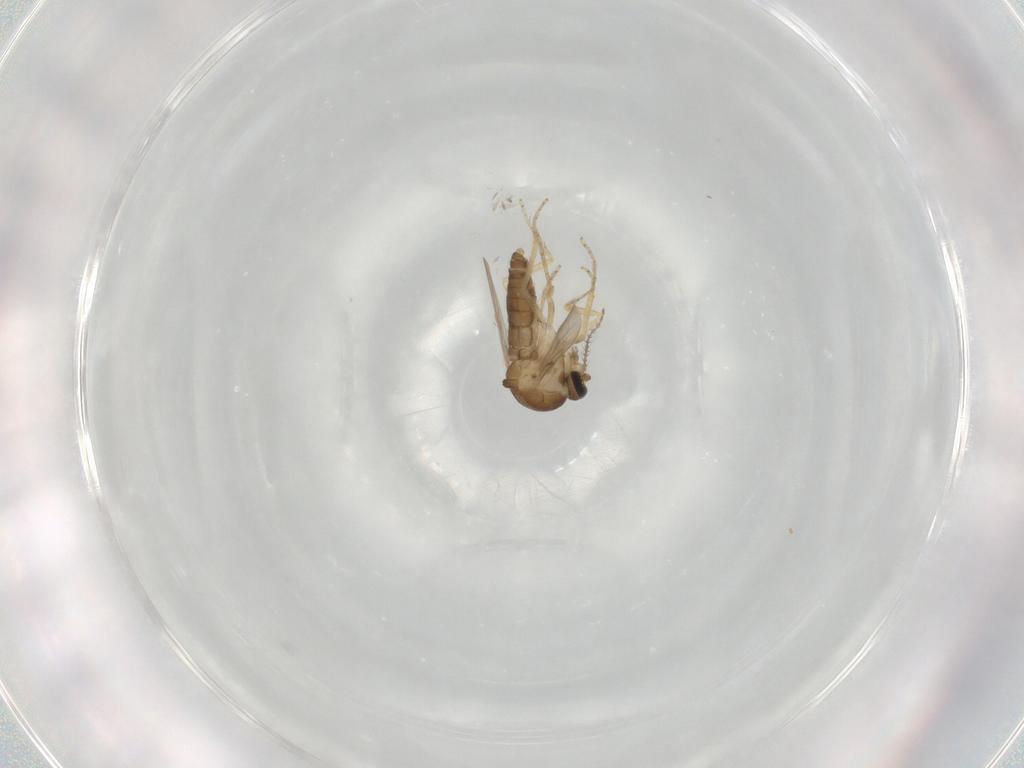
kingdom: Animalia
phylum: Arthropoda
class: Insecta
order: Diptera
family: Ceratopogonidae
